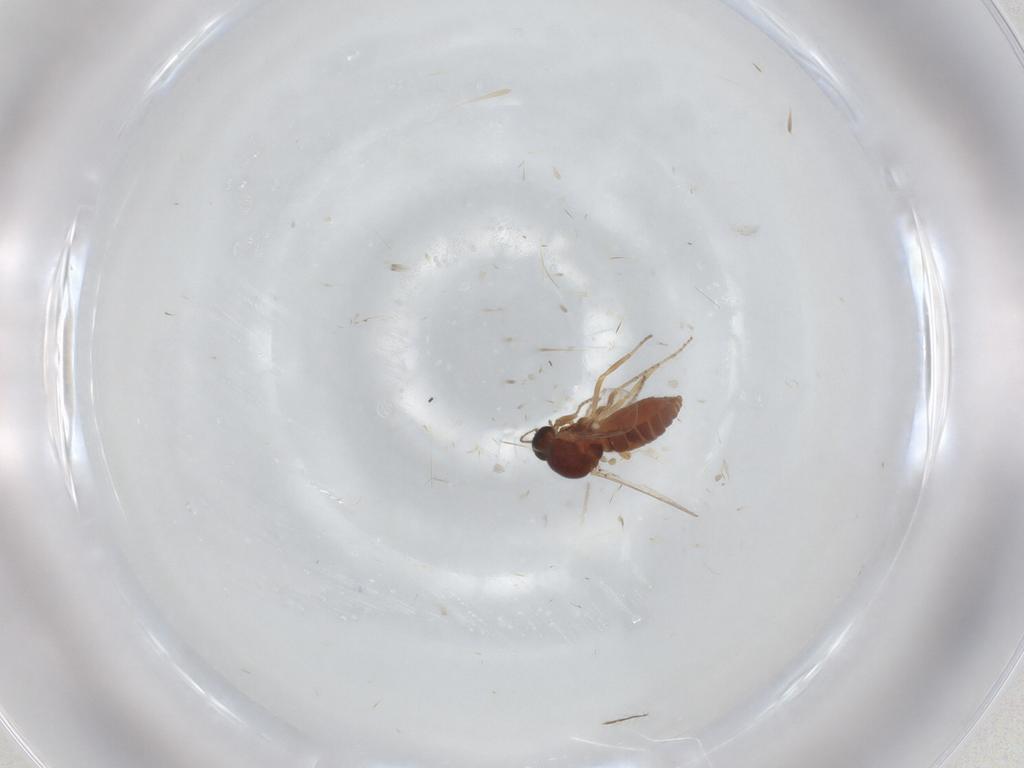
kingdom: Animalia
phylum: Arthropoda
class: Insecta
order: Diptera
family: Ceratopogonidae
